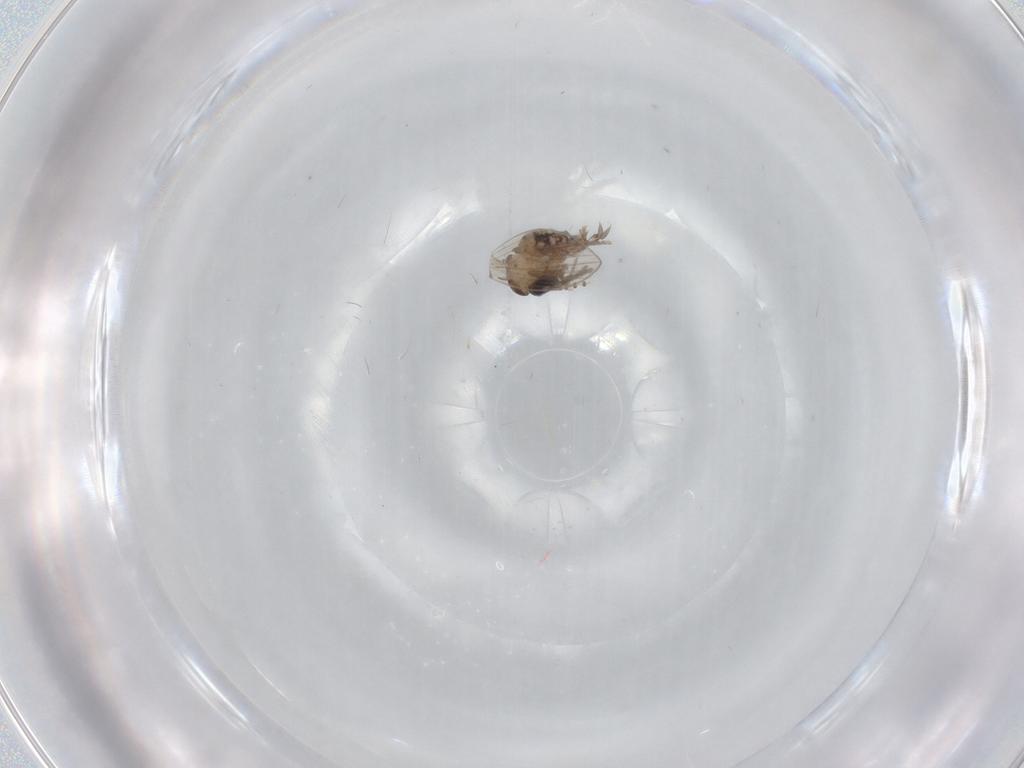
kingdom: Animalia
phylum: Arthropoda
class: Insecta
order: Diptera
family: Psychodidae
